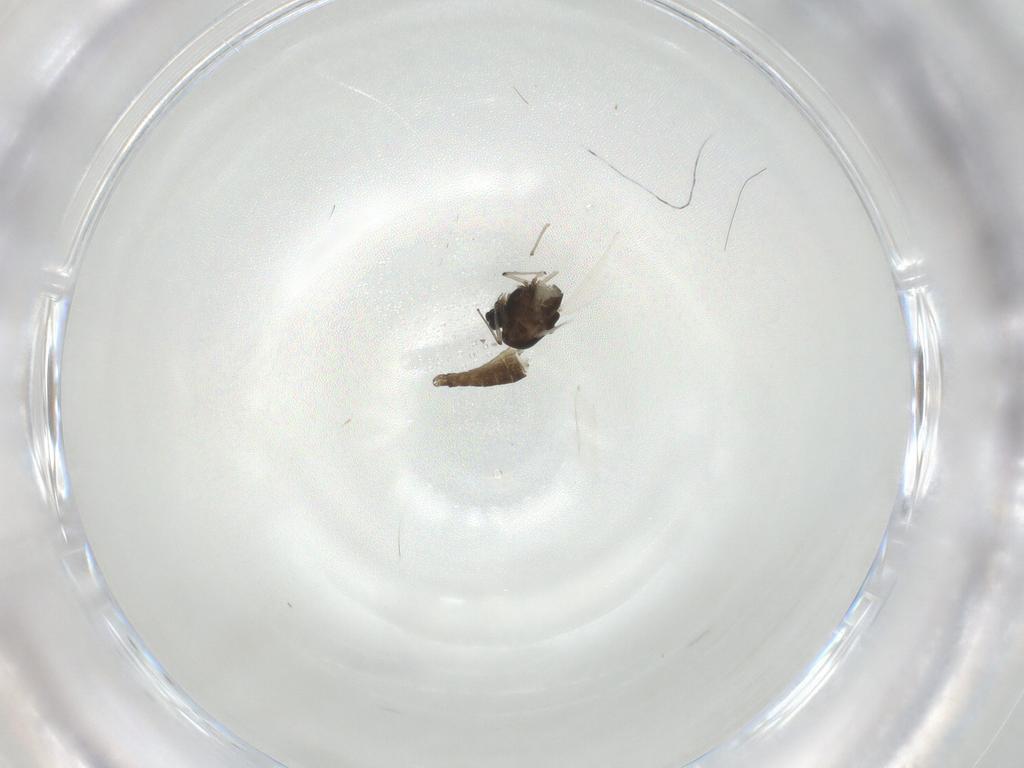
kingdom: Animalia
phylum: Arthropoda
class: Insecta
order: Diptera
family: Chironomidae
